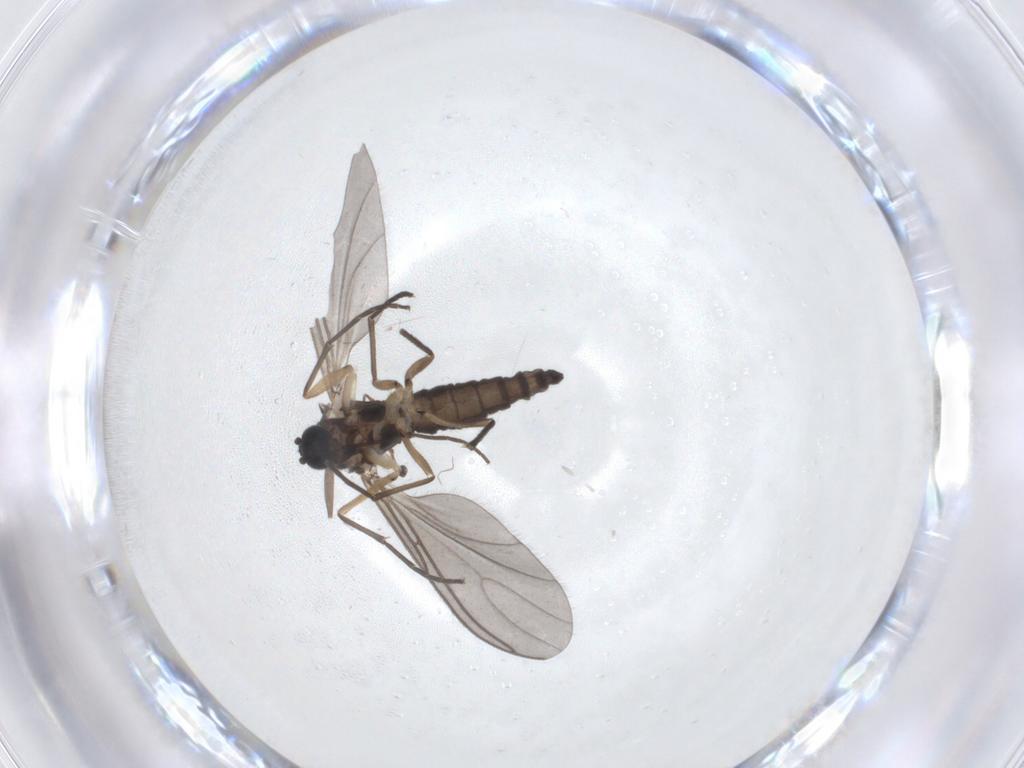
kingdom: Animalia
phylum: Arthropoda
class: Insecta
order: Diptera
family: Sciaridae
